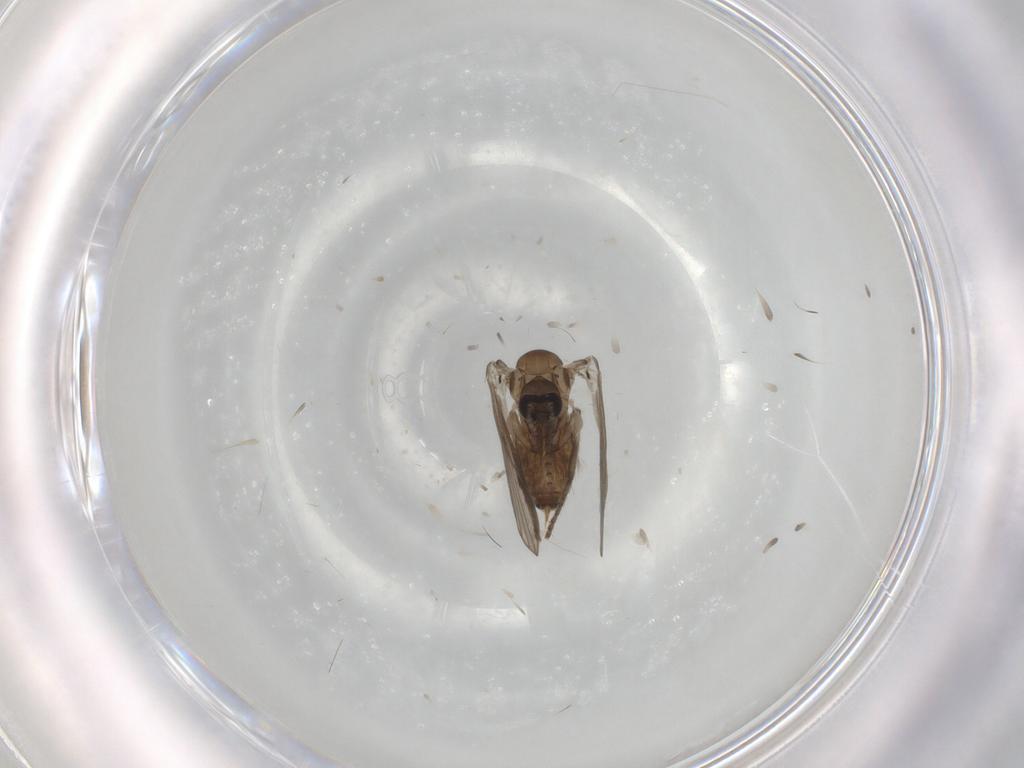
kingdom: Animalia
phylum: Arthropoda
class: Insecta
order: Diptera
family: Psychodidae
